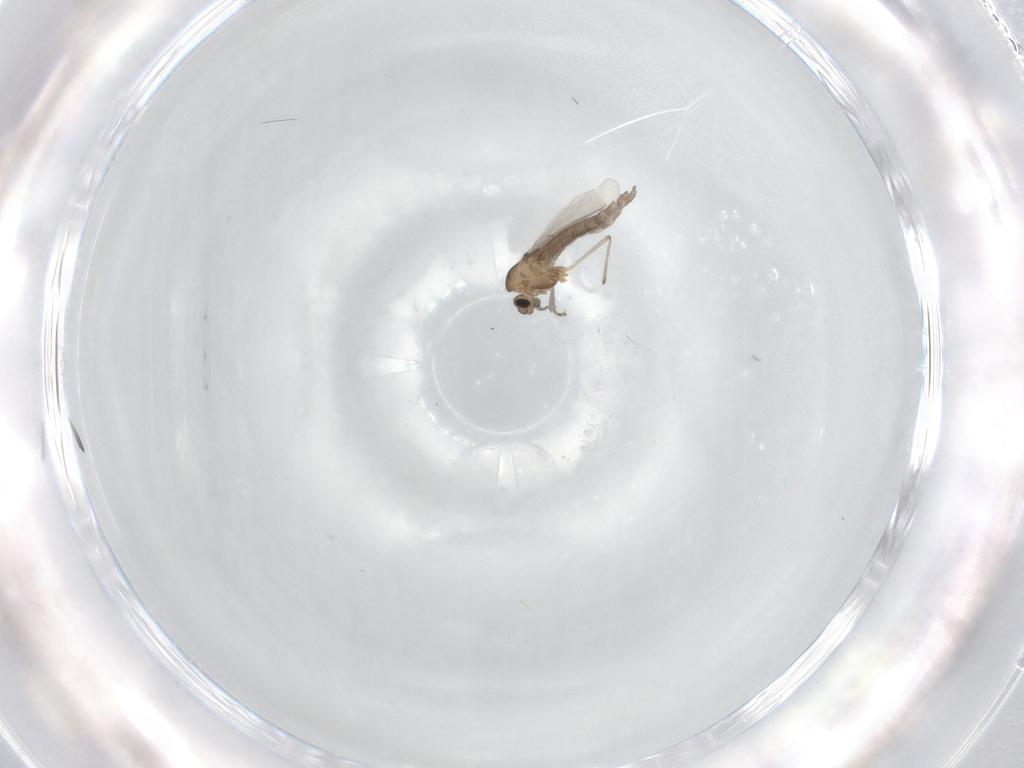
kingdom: Animalia
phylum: Arthropoda
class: Insecta
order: Diptera
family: Chironomidae
